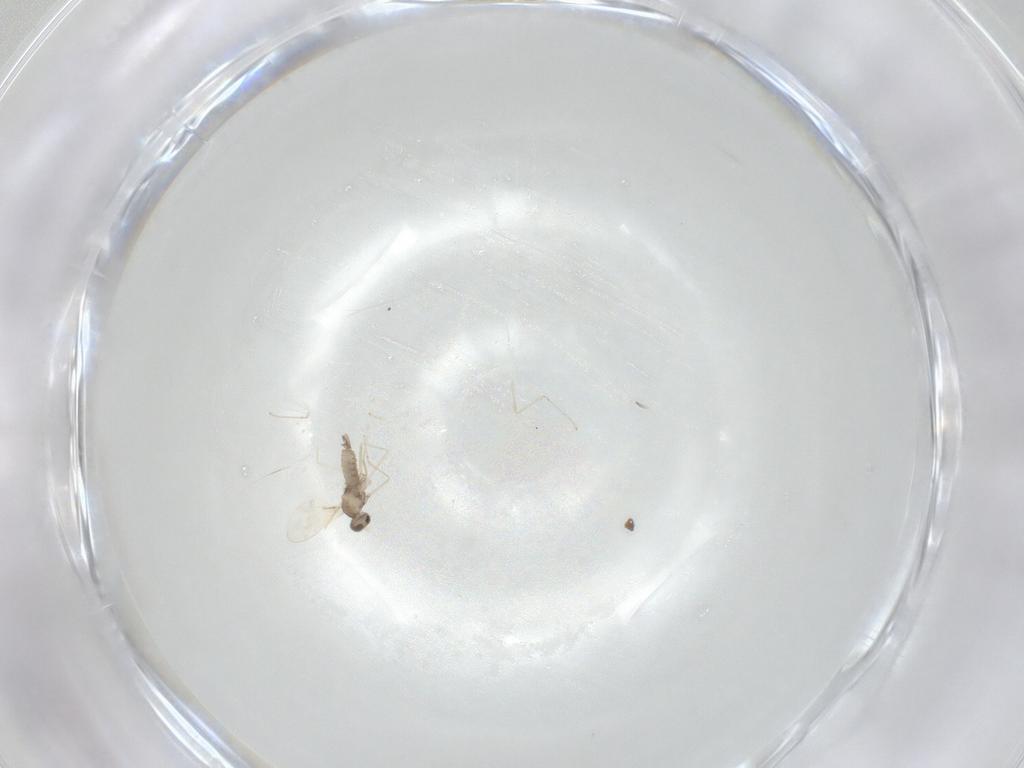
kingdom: Animalia
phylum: Arthropoda
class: Insecta
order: Diptera
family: Cecidomyiidae
